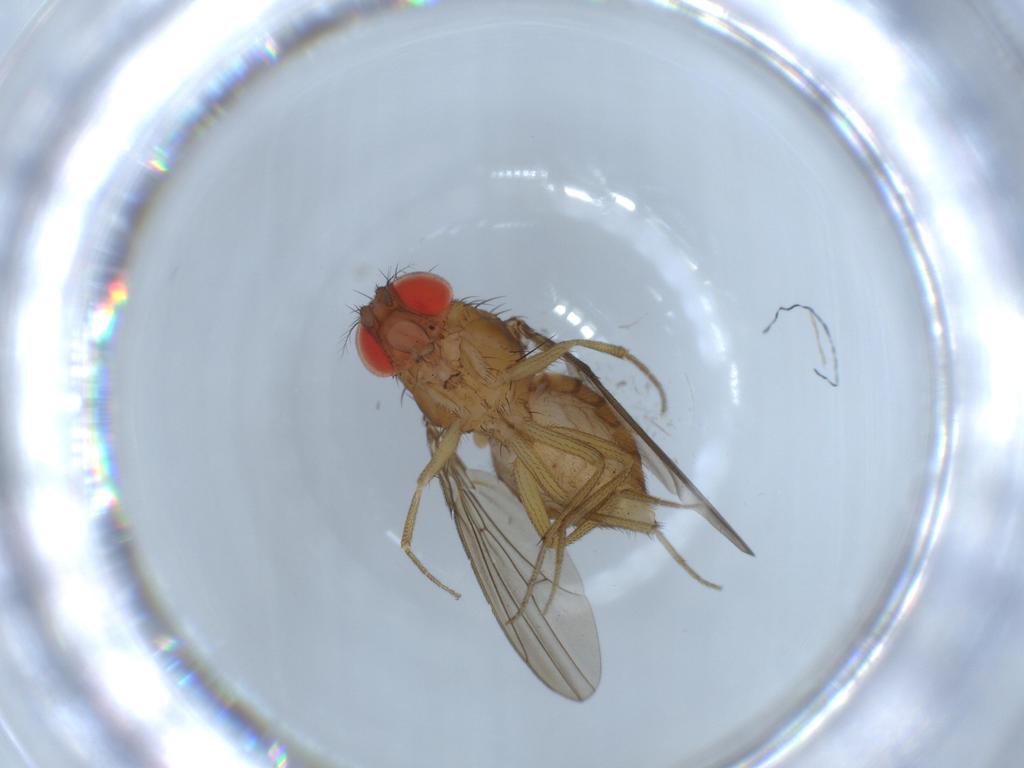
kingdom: Animalia
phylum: Arthropoda
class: Insecta
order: Diptera
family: Drosophilidae
